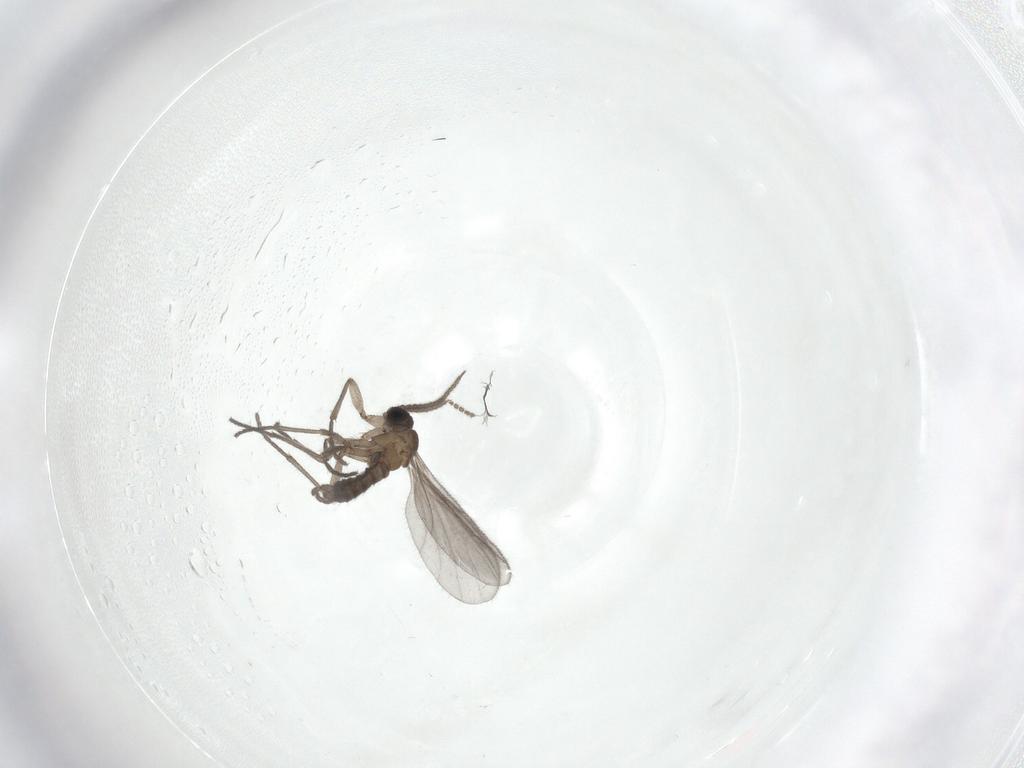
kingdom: Animalia
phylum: Arthropoda
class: Insecta
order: Diptera
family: Sciaridae
